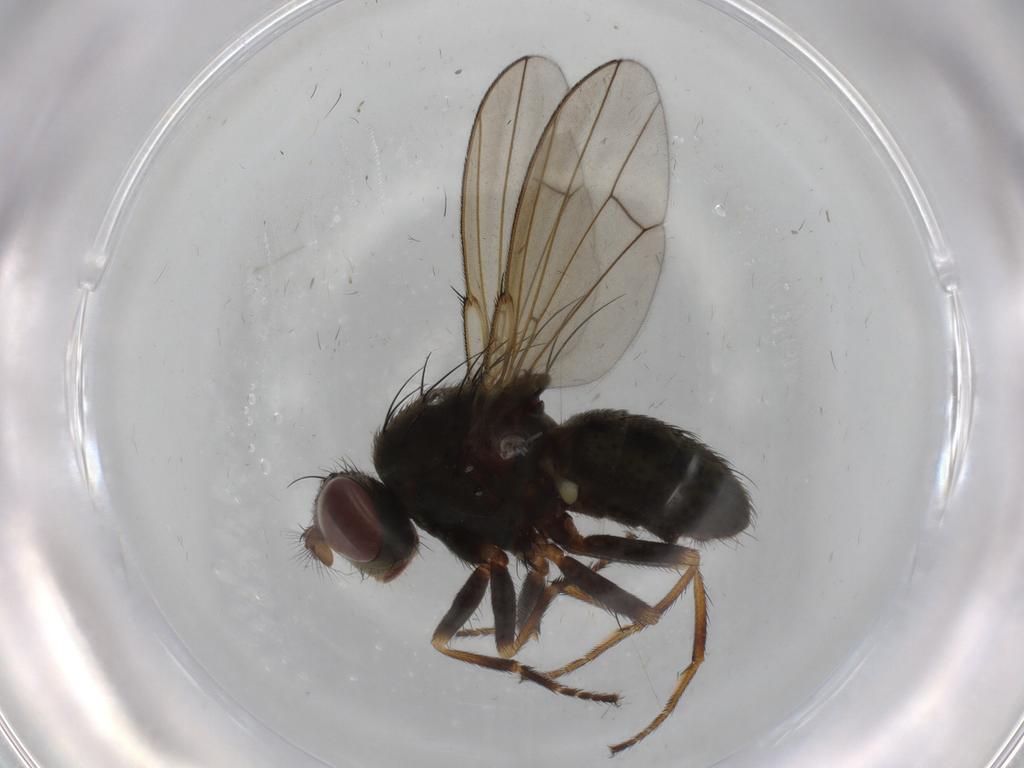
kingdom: Animalia
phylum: Arthropoda
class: Insecta
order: Diptera
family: Ephydridae
